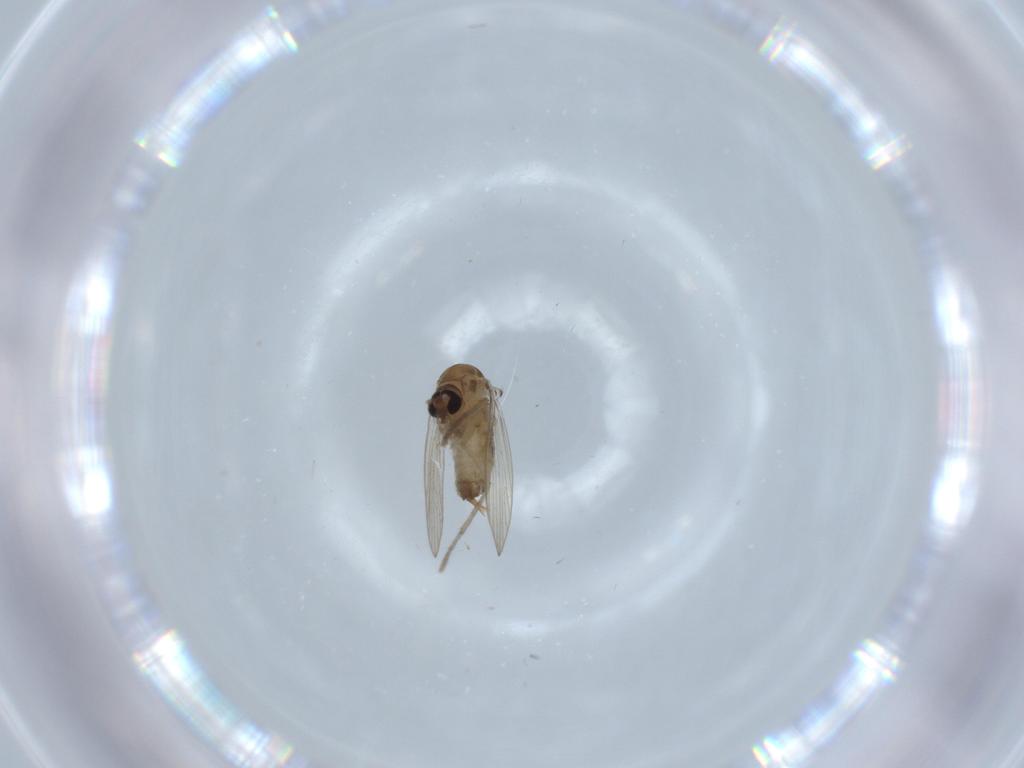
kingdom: Animalia
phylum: Arthropoda
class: Insecta
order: Diptera
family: Psychodidae
